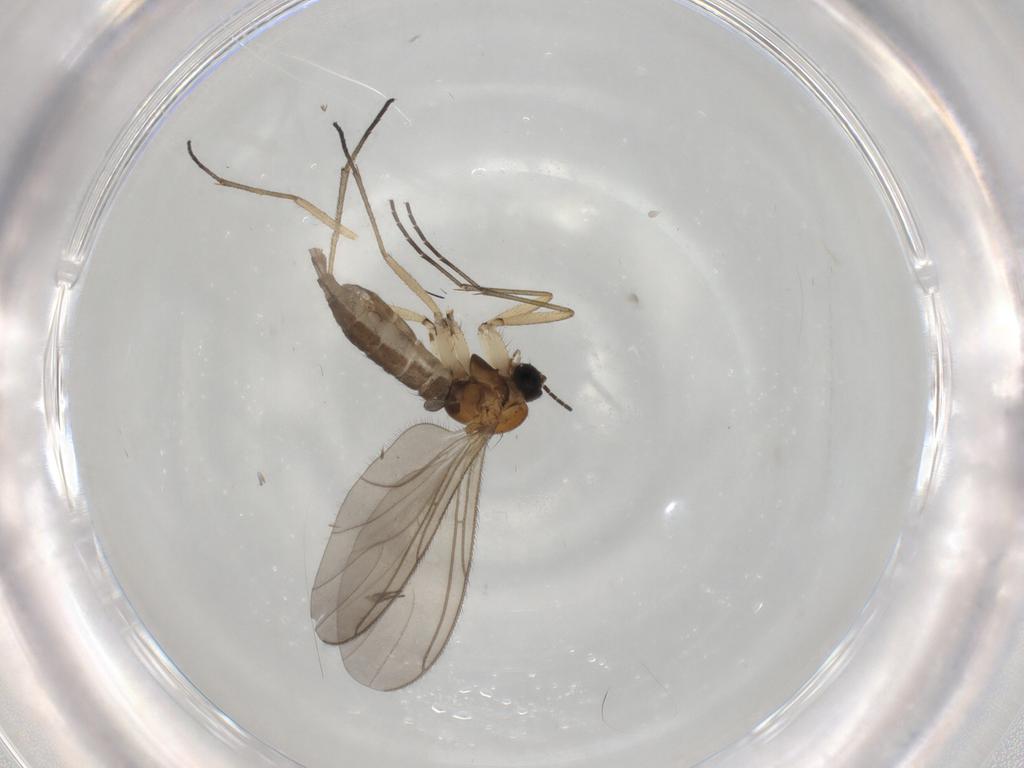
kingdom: Animalia
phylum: Arthropoda
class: Insecta
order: Diptera
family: Sciaridae
